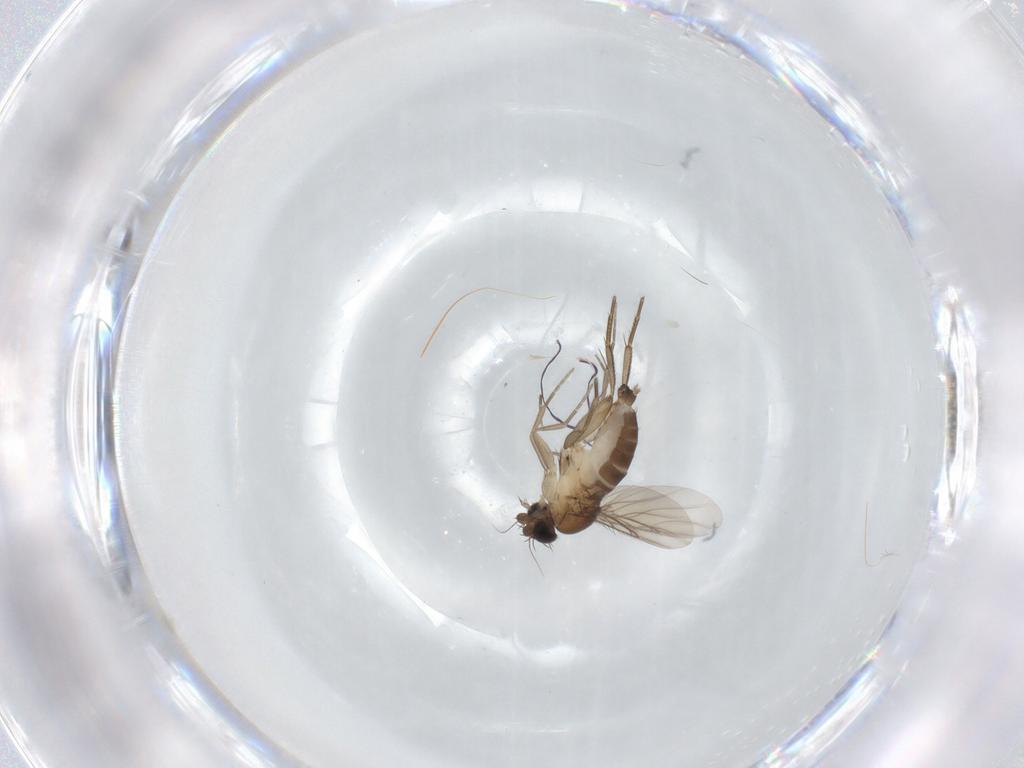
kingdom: Animalia
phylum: Arthropoda
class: Insecta
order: Diptera
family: Phoridae
